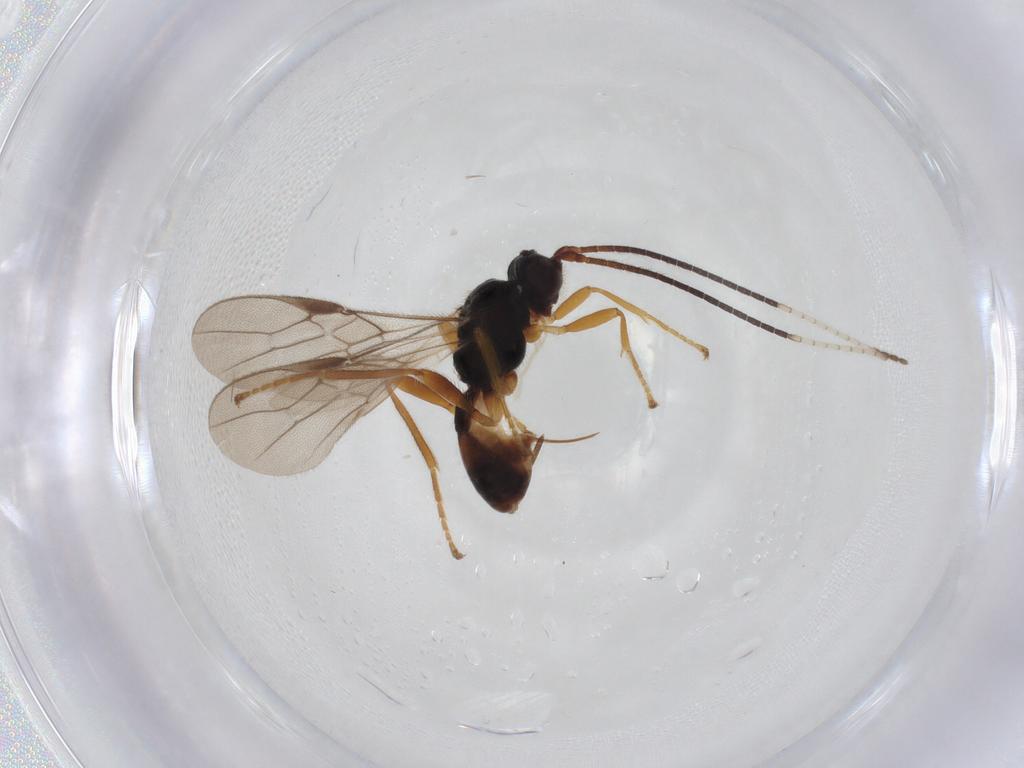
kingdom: Animalia
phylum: Arthropoda
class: Insecta
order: Hymenoptera
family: Braconidae
